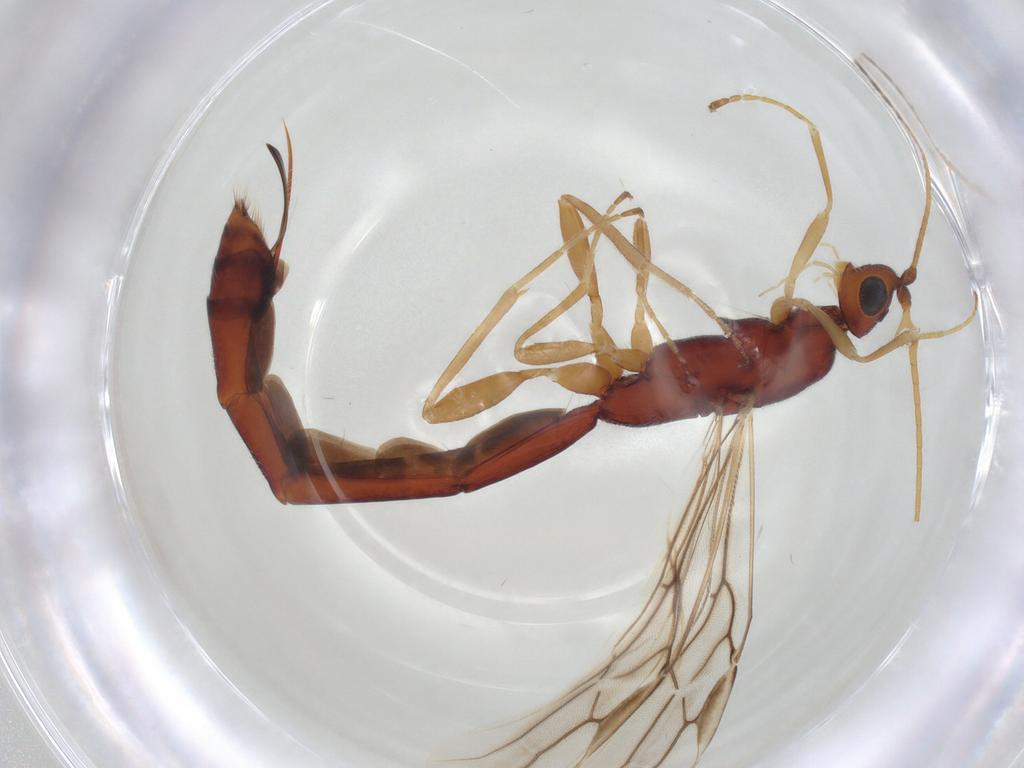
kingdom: Animalia
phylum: Arthropoda
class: Insecta
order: Hymenoptera
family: Braconidae
